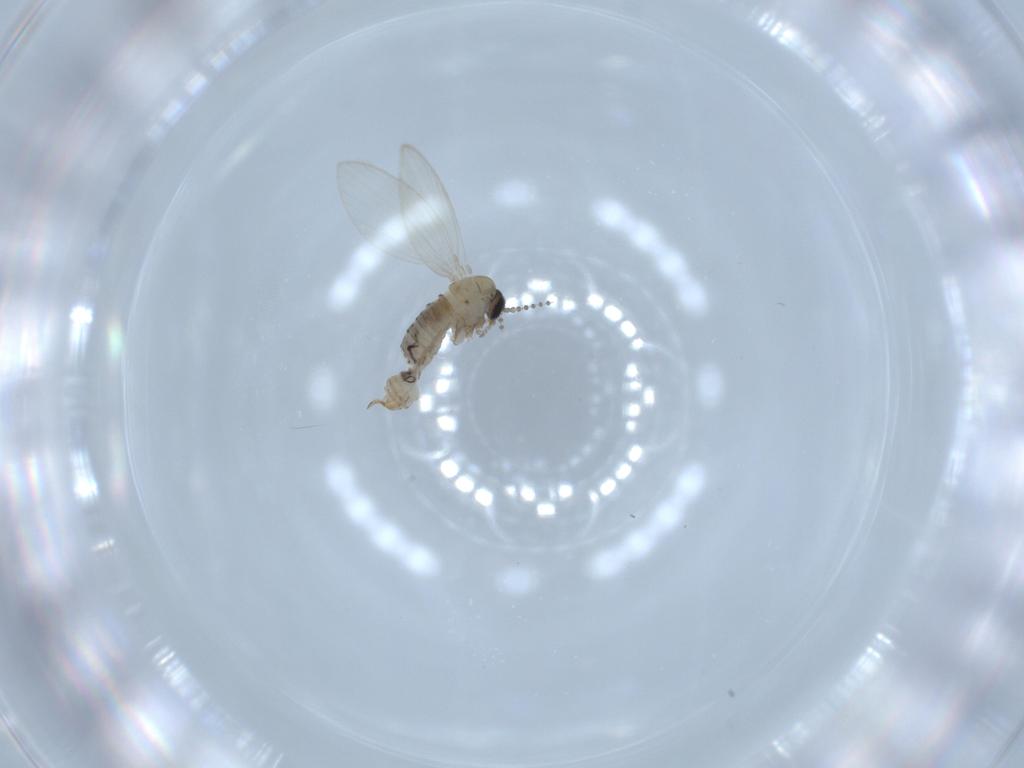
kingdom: Animalia
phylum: Arthropoda
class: Insecta
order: Diptera
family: Psychodidae
